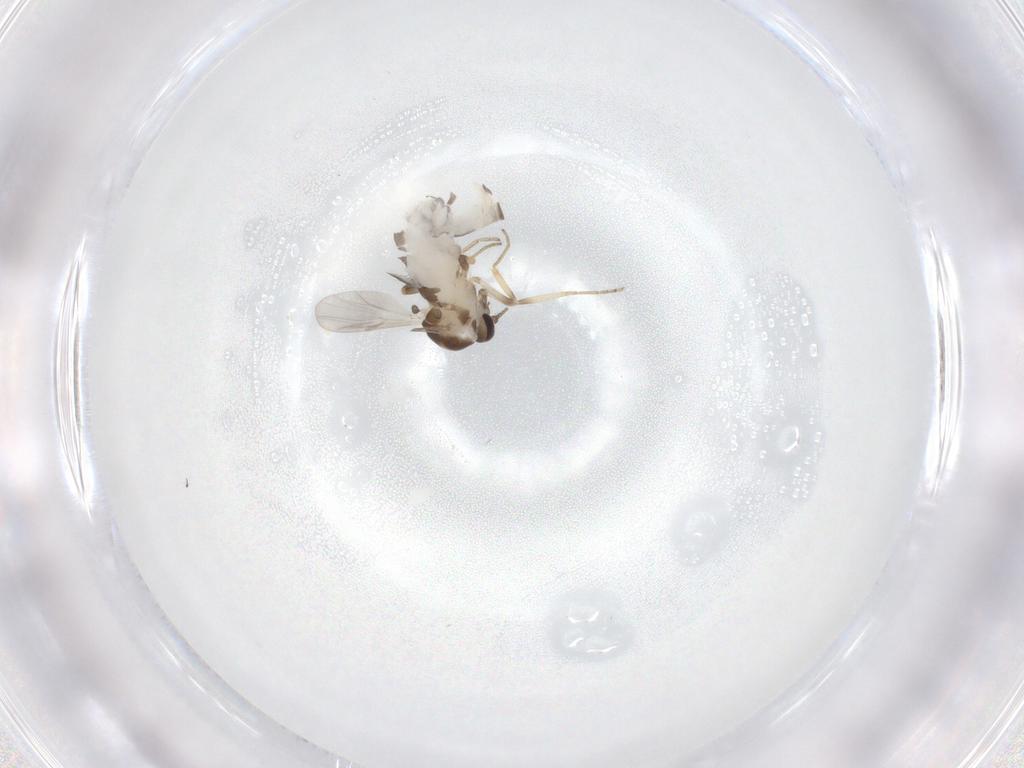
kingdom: Animalia
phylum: Arthropoda
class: Insecta
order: Diptera
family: Ceratopogonidae
